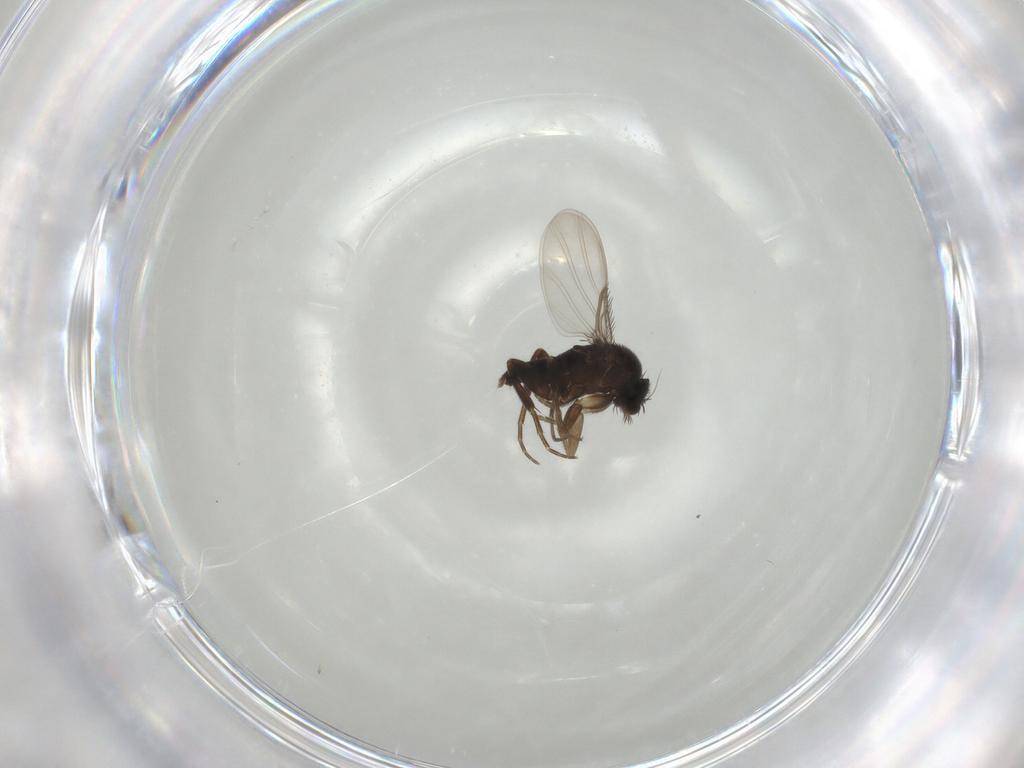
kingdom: Animalia
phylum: Arthropoda
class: Insecta
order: Diptera
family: Phoridae
